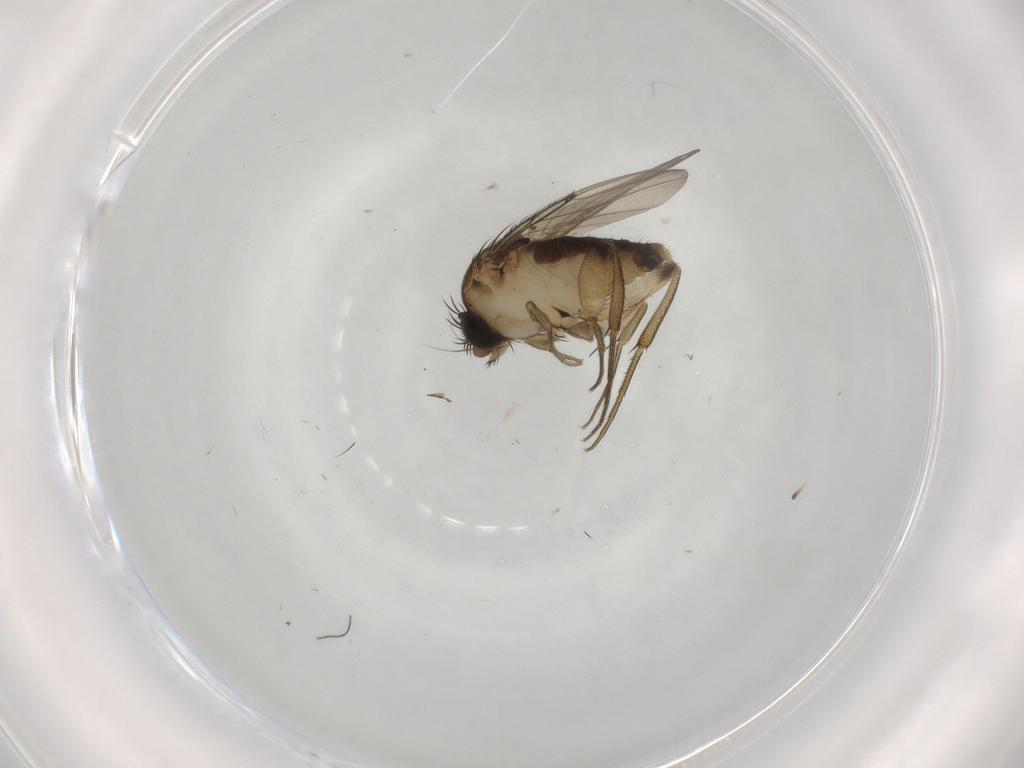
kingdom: Animalia
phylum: Arthropoda
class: Insecta
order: Diptera
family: Phoridae
